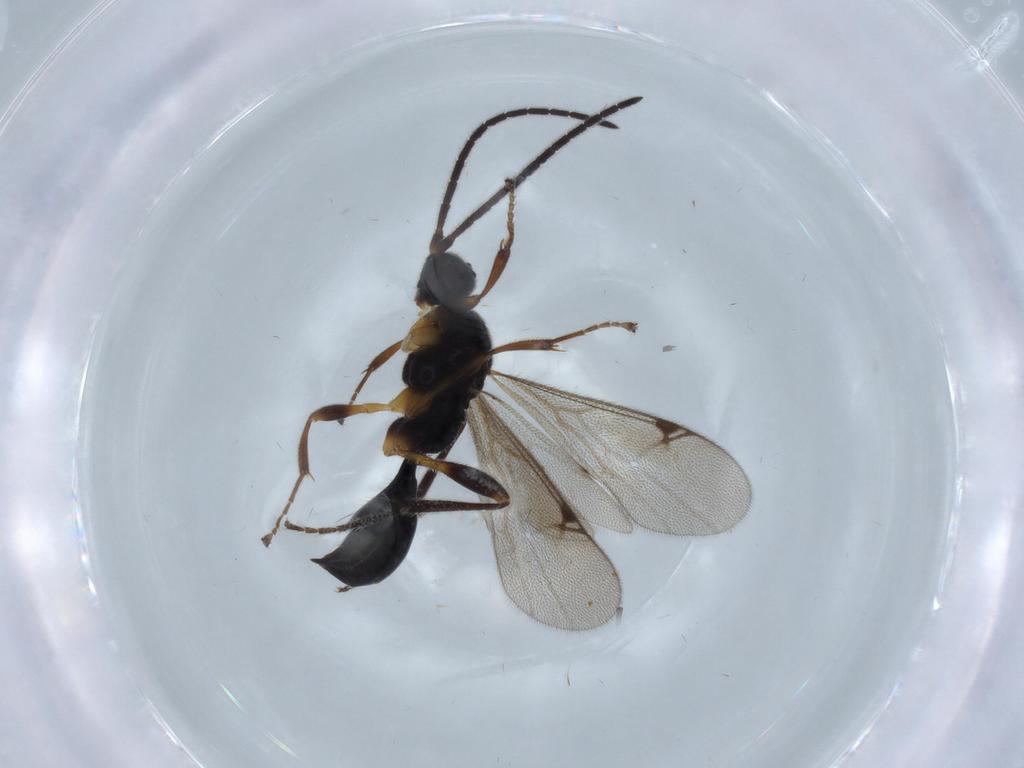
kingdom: Animalia
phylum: Arthropoda
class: Insecta
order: Hymenoptera
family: Proctotrupidae
